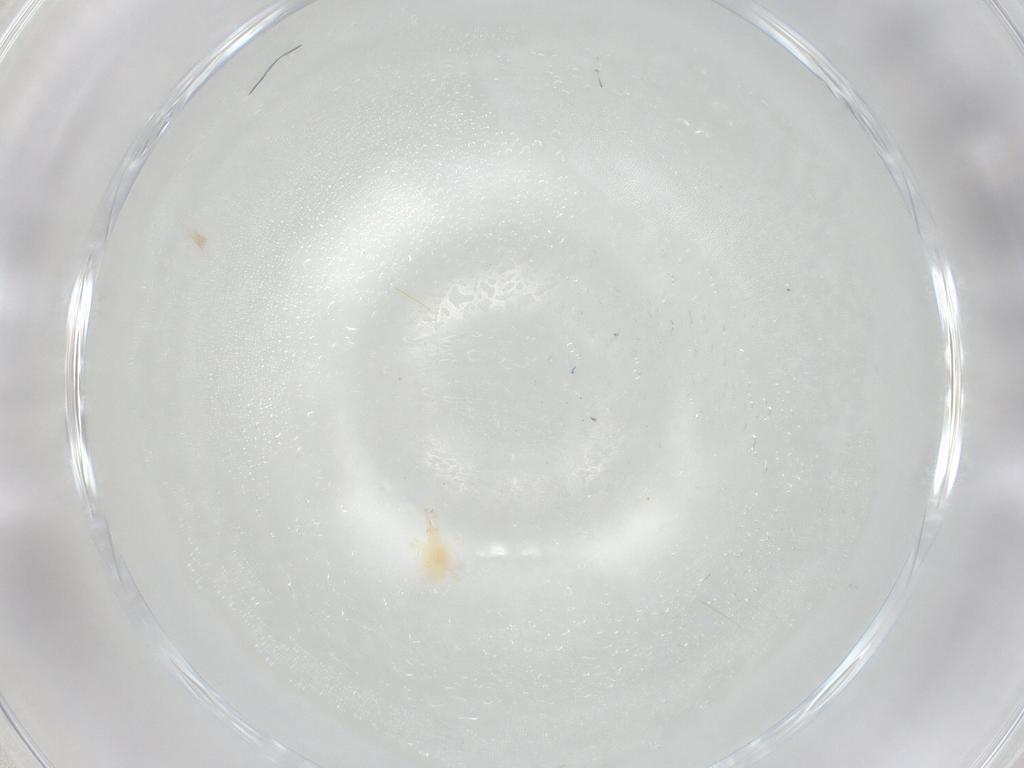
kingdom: Animalia
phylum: Arthropoda
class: Insecta
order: Thysanoptera
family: Thripidae
